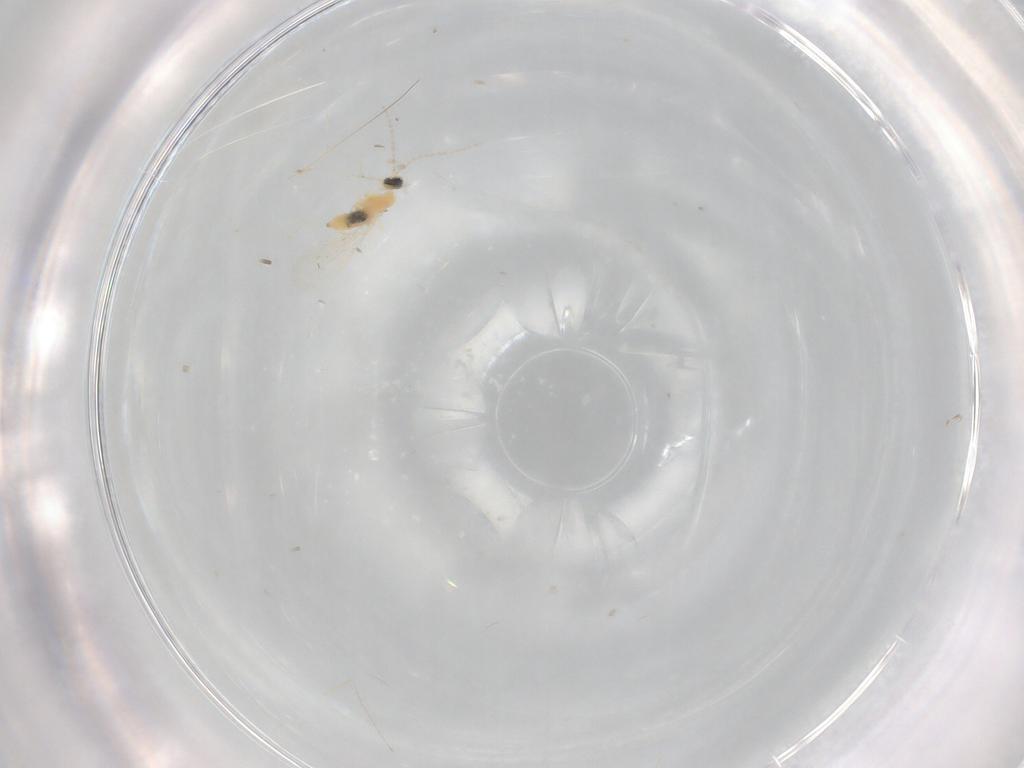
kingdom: Animalia
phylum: Arthropoda
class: Insecta
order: Diptera
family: Cecidomyiidae
